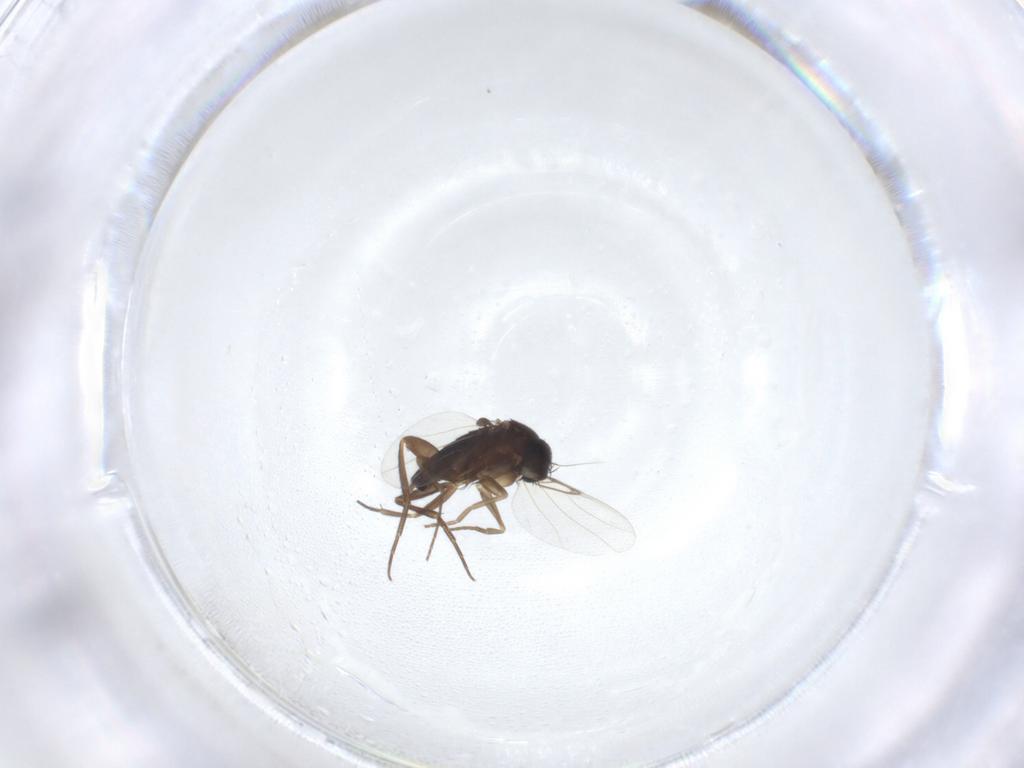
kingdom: Animalia
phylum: Arthropoda
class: Insecta
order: Diptera
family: Phoridae
